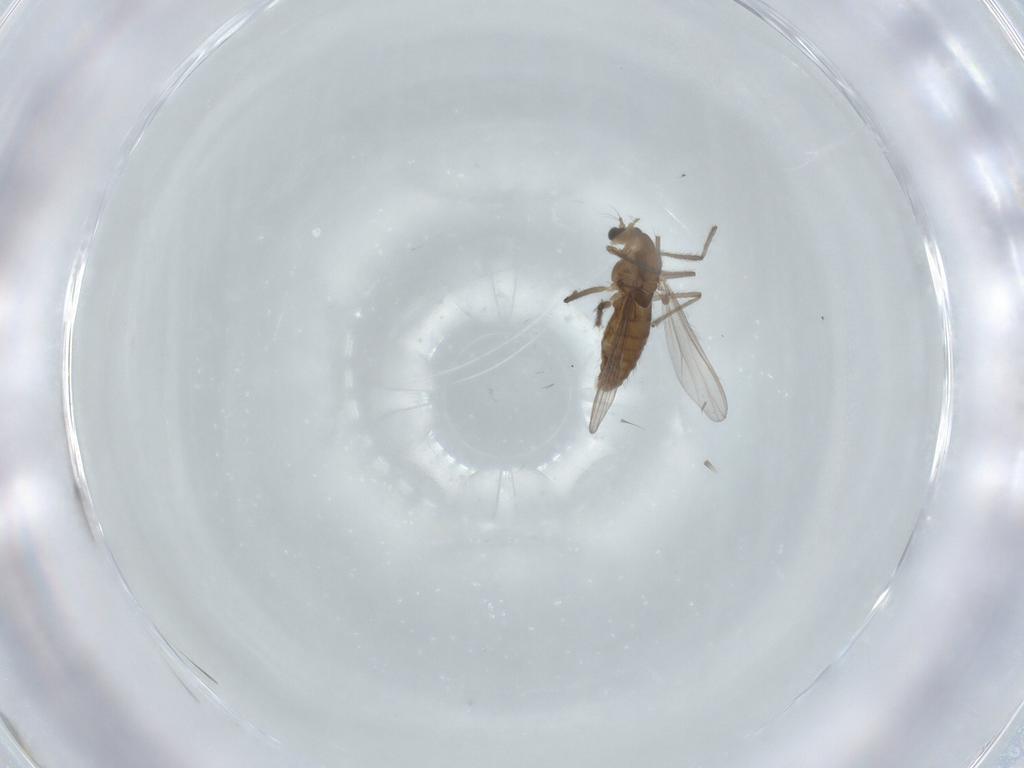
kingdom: Animalia
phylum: Arthropoda
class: Insecta
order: Diptera
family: Chironomidae
